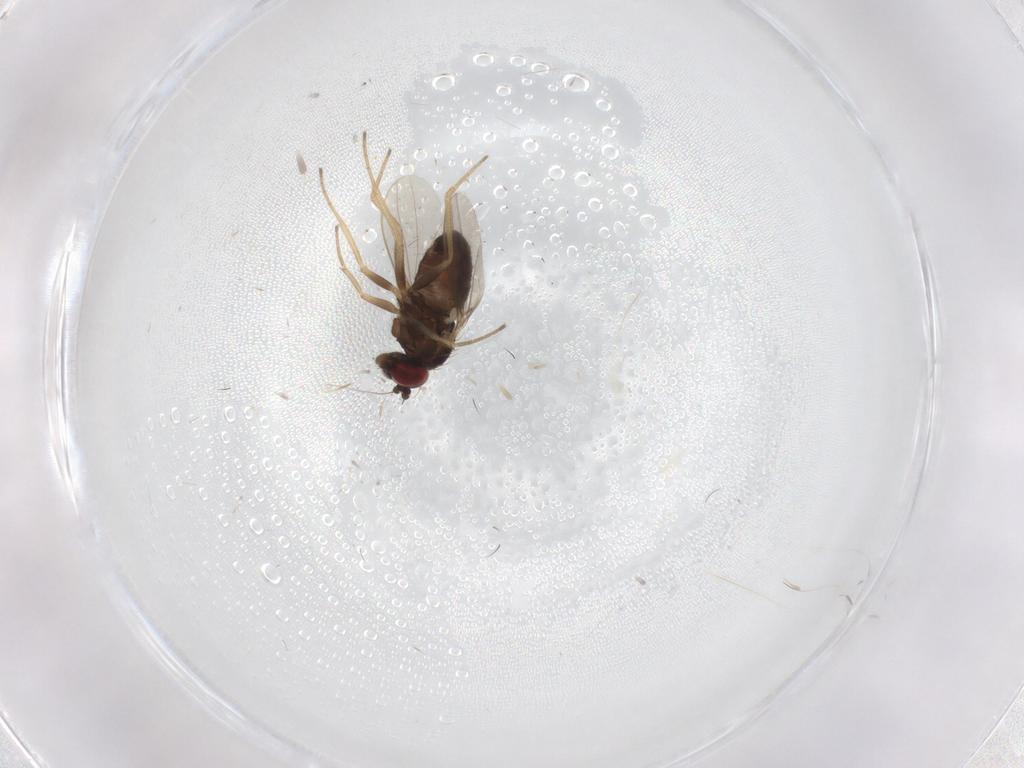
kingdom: Animalia
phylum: Arthropoda
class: Insecta
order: Diptera
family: Dolichopodidae
